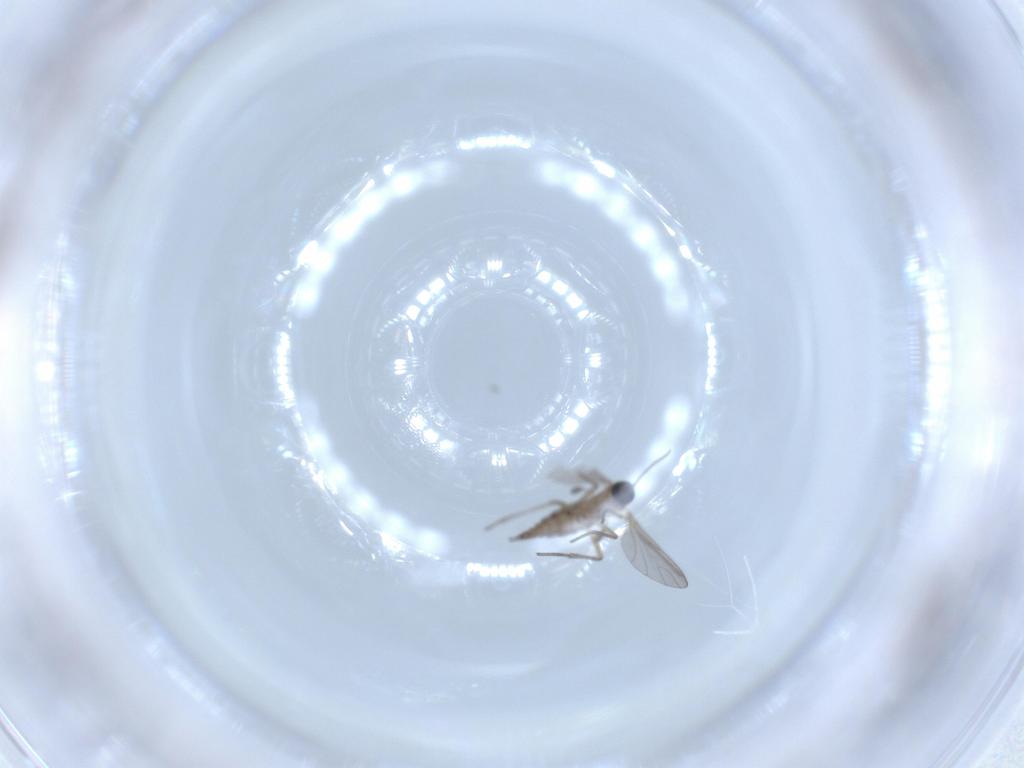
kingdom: Animalia
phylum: Arthropoda
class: Insecta
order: Diptera
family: Sciaridae
